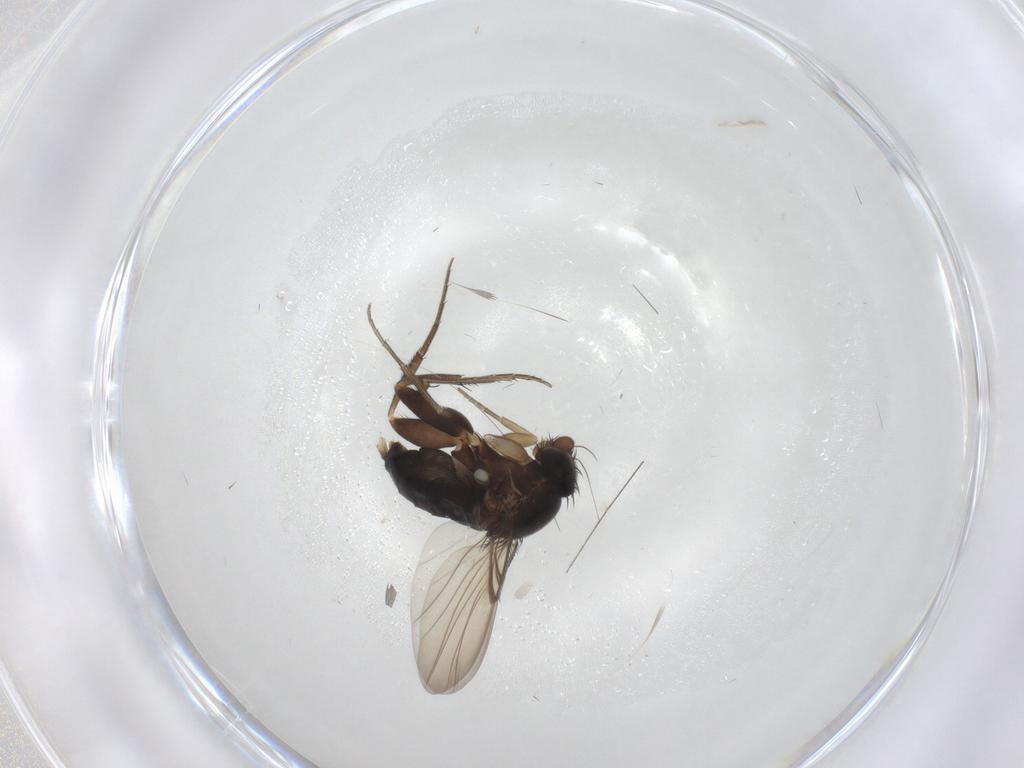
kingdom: Animalia
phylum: Arthropoda
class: Insecta
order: Diptera
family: Phoridae
